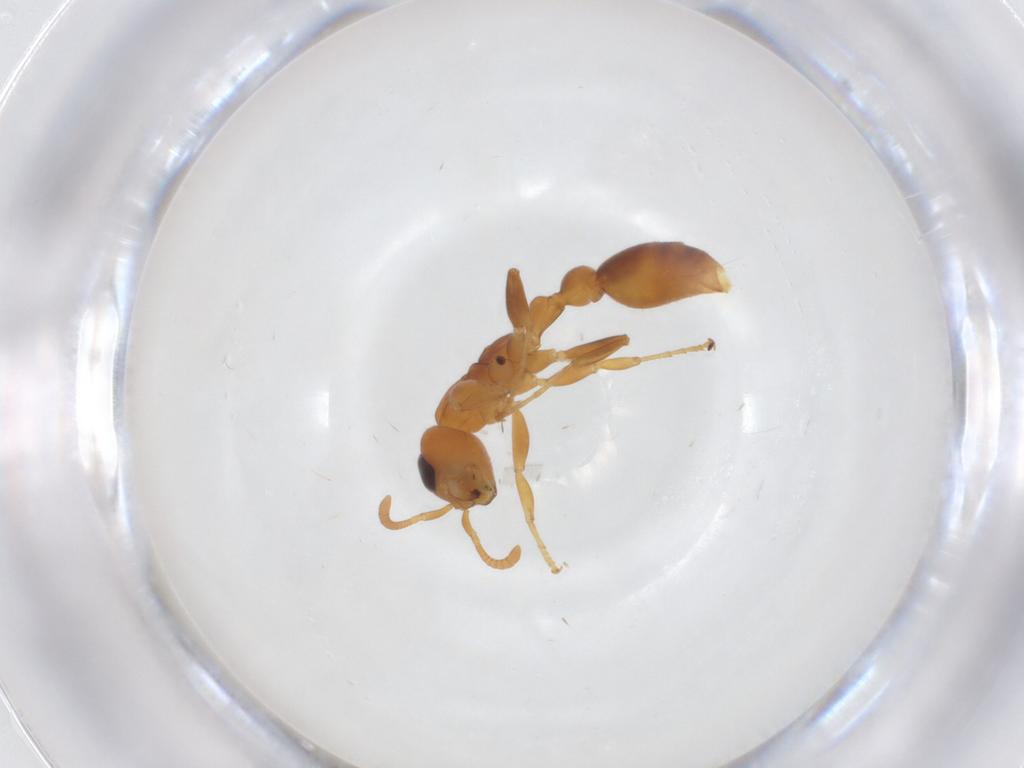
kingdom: Animalia
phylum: Arthropoda
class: Insecta
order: Hymenoptera
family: Formicidae
